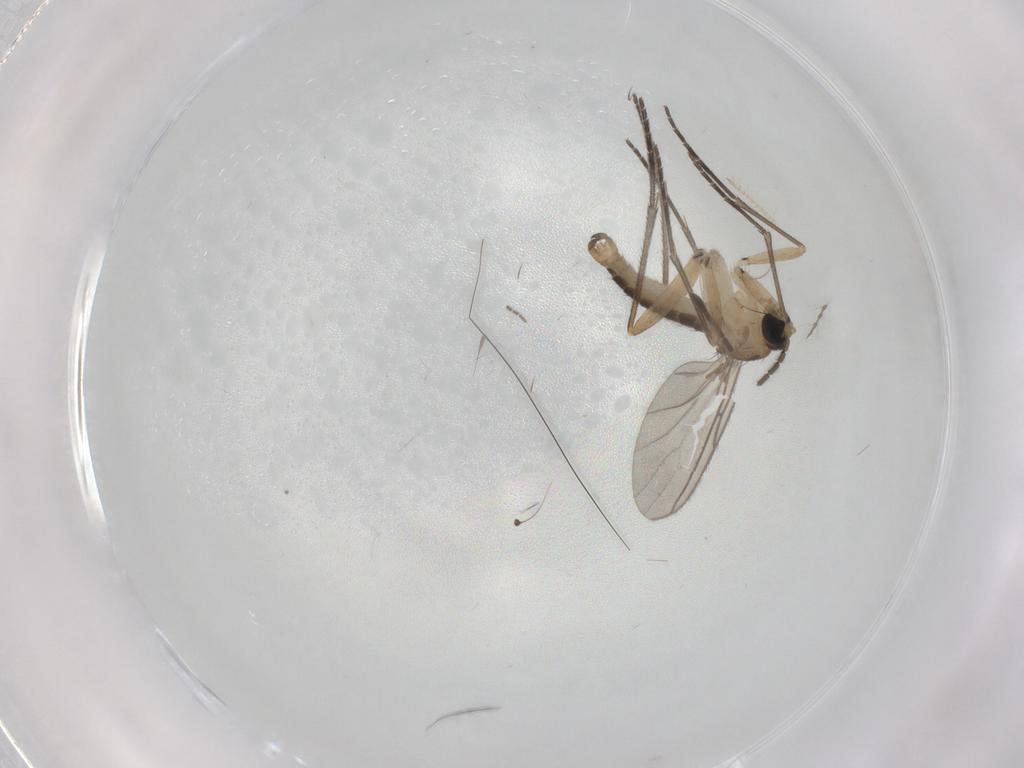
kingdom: Animalia
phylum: Arthropoda
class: Insecta
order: Diptera
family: Sciaridae
